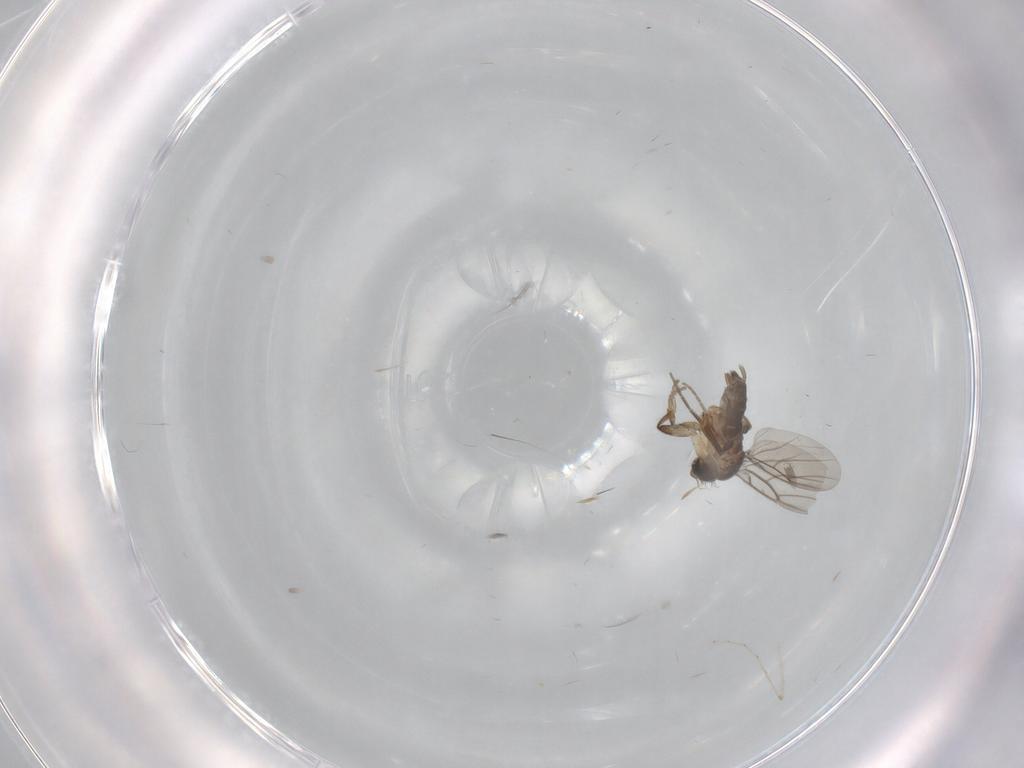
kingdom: Animalia
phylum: Arthropoda
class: Insecta
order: Diptera
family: Phoridae
